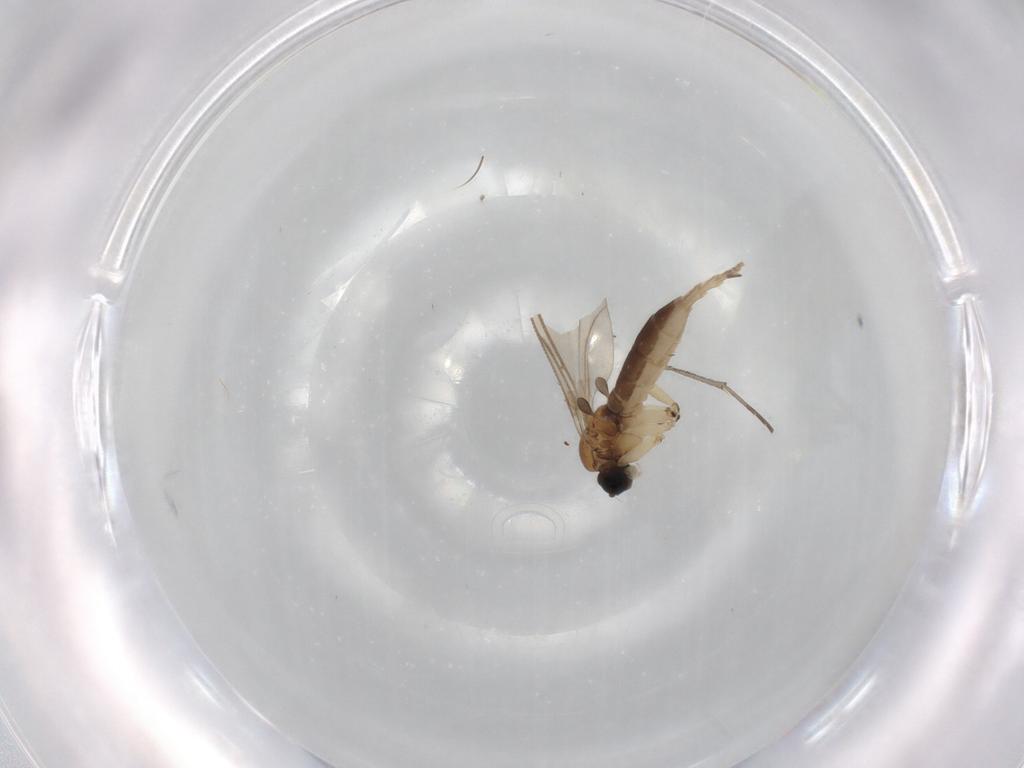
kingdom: Animalia
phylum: Arthropoda
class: Insecta
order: Diptera
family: Sciaridae
